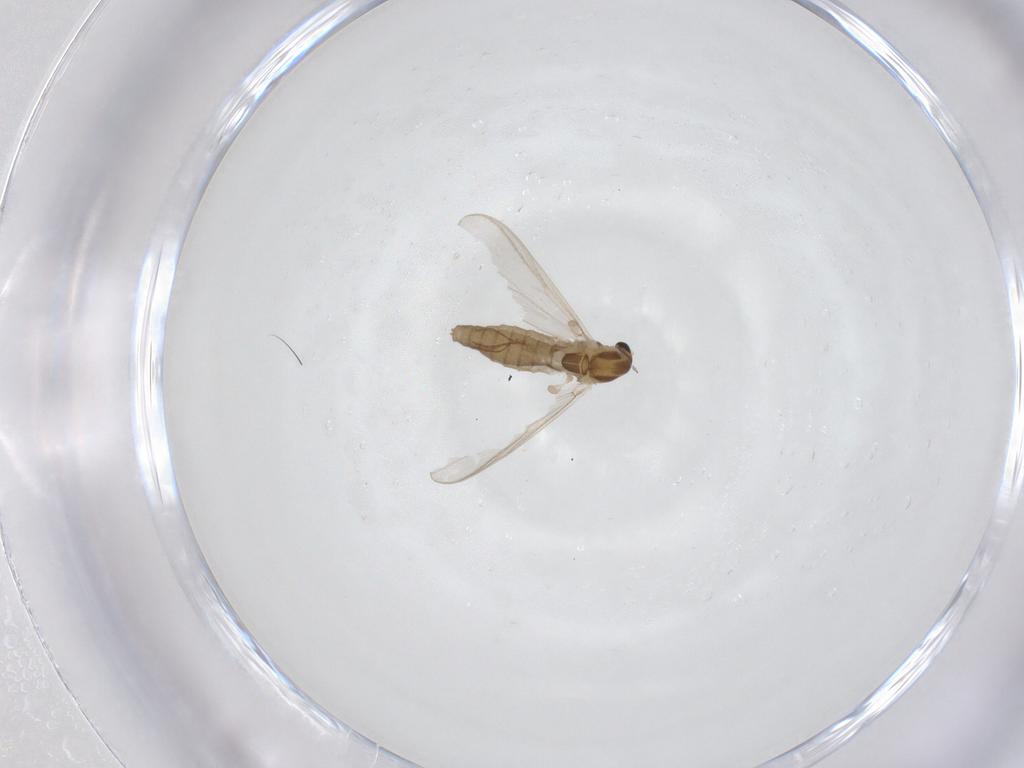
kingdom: Animalia
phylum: Arthropoda
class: Insecta
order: Diptera
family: Chironomidae
